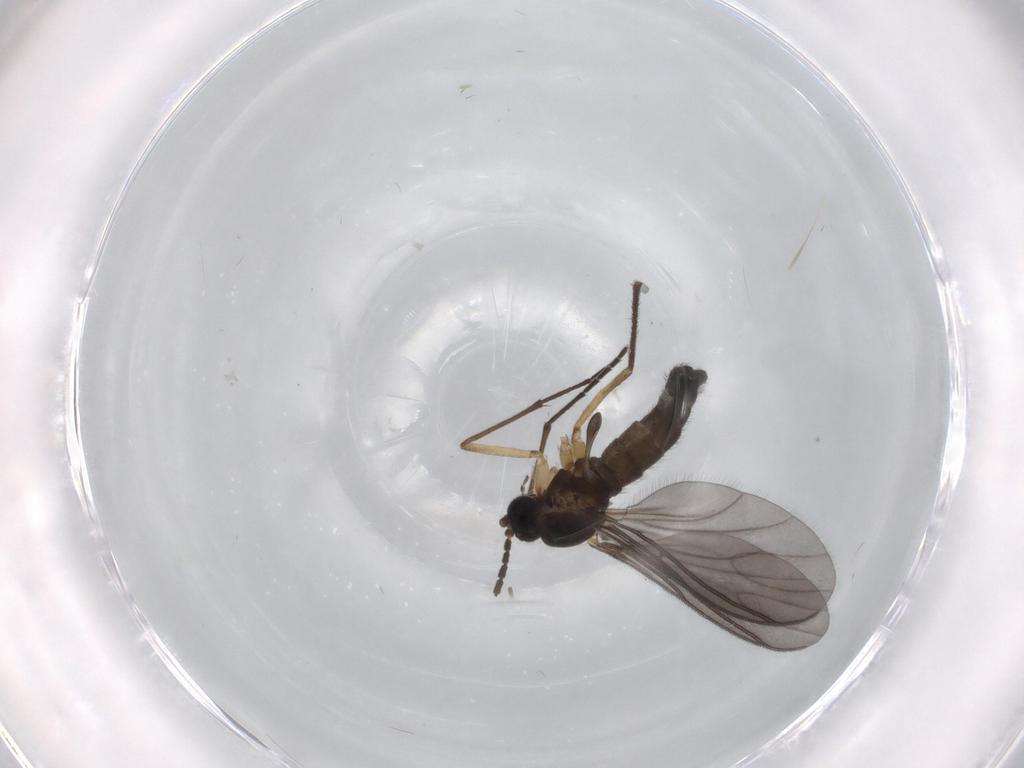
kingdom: Animalia
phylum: Arthropoda
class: Insecta
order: Diptera
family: Sciaridae
